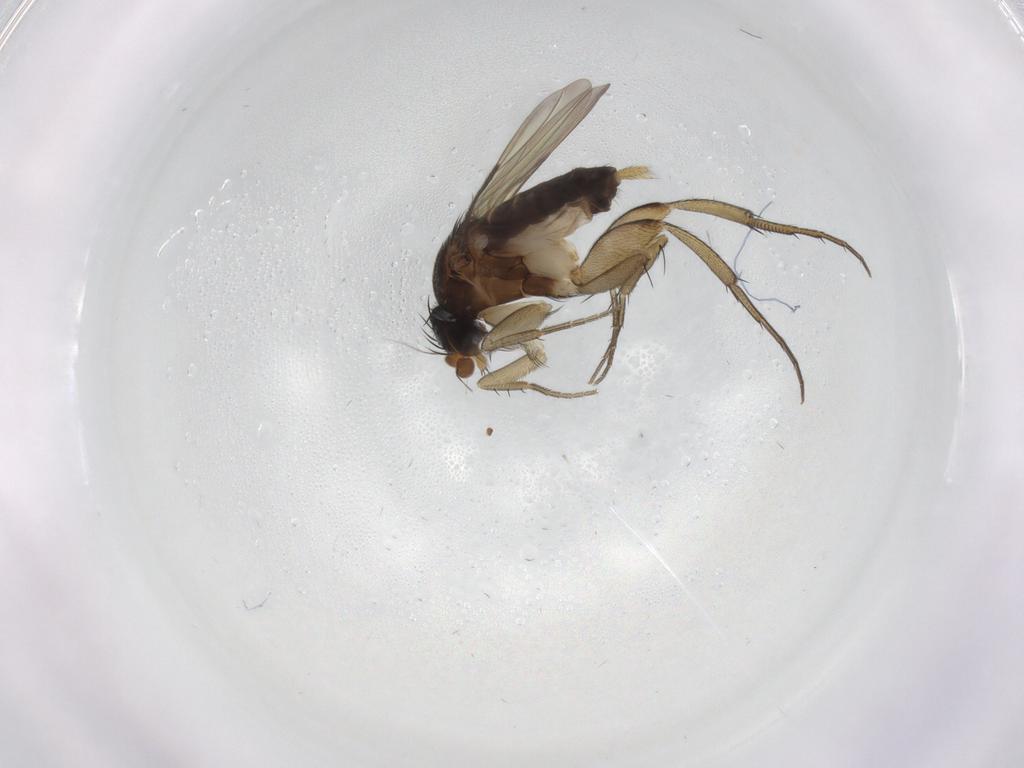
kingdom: Animalia
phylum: Arthropoda
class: Insecta
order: Diptera
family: Phoridae
